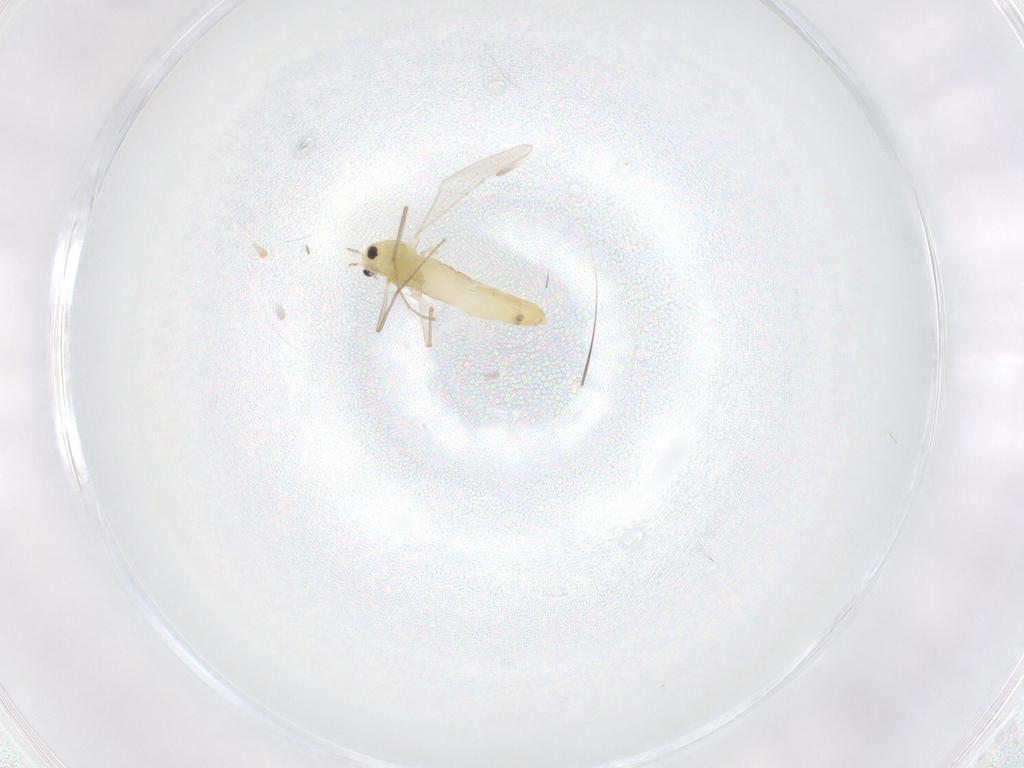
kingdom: Animalia
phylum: Arthropoda
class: Insecta
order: Diptera
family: Chironomidae
